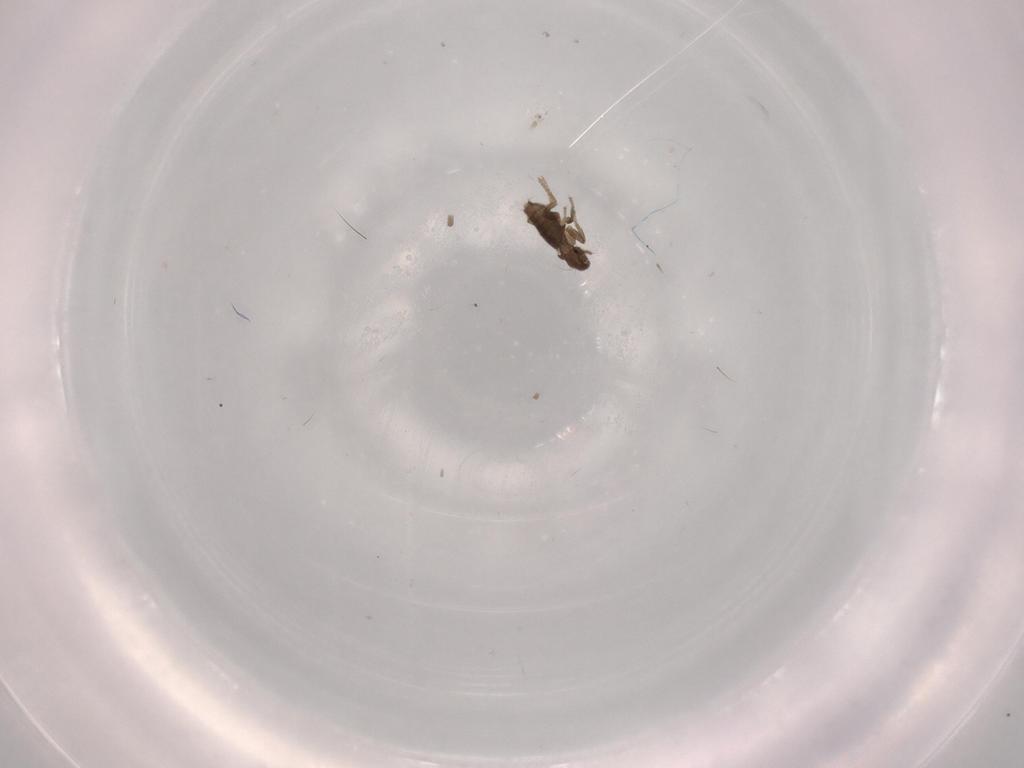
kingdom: Animalia
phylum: Arthropoda
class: Insecta
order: Diptera
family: Phoridae
